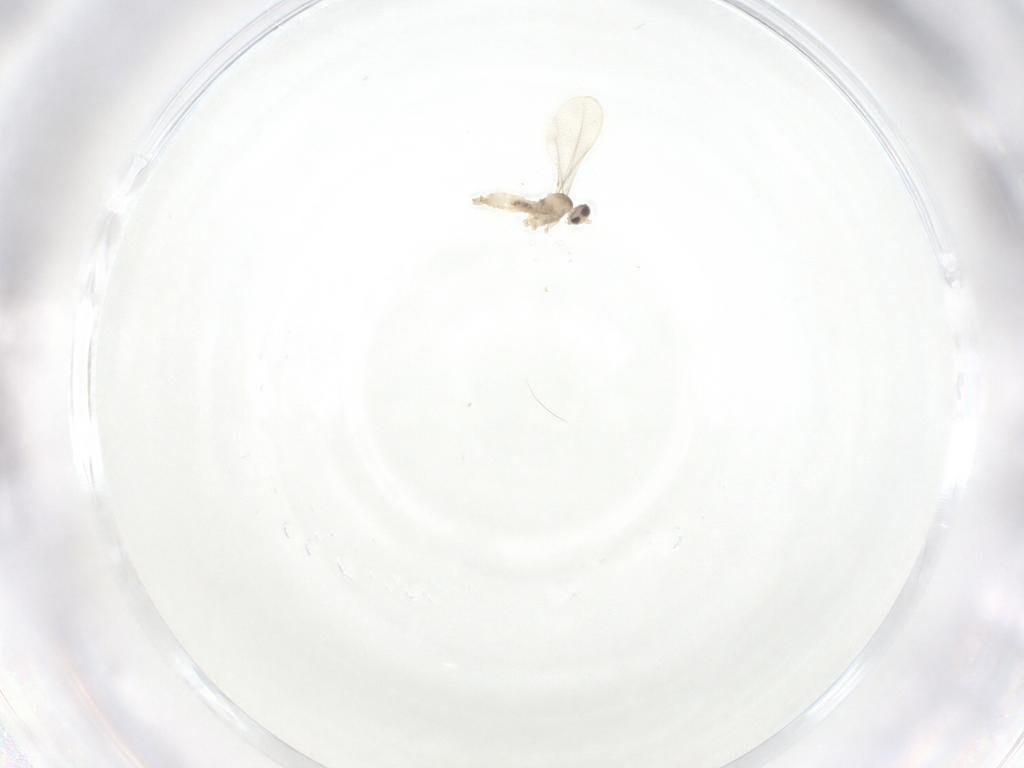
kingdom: Animalia
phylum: Arthropoda
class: Insecta
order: Diptera
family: Cecidomyiidae
